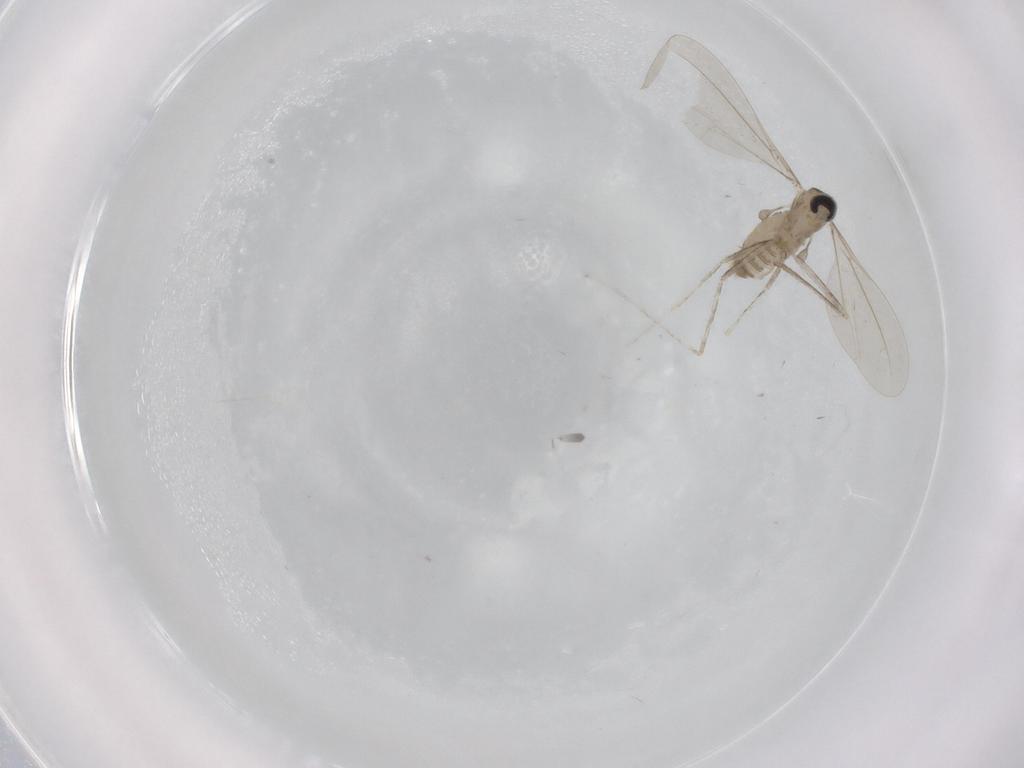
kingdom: Animalia
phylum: Arthropoda
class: Insecta
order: Diptera
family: Cecidomyiidae
